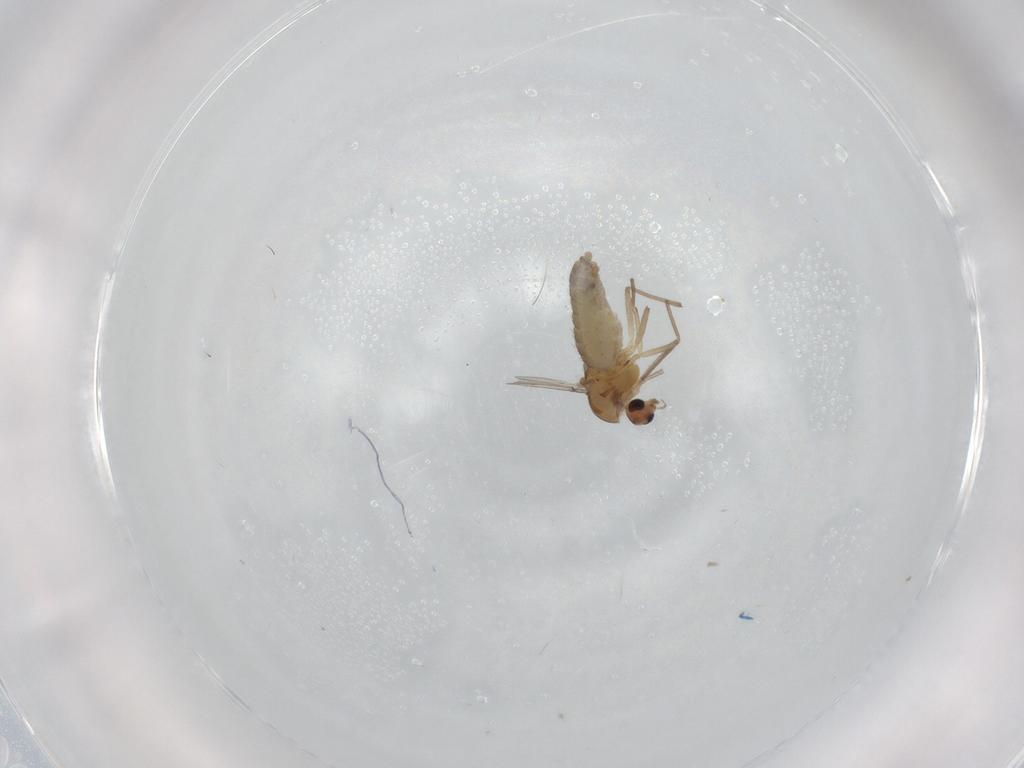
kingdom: Animalia
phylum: Arthropoda
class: Insecta
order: Diptera
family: Chironomidae
